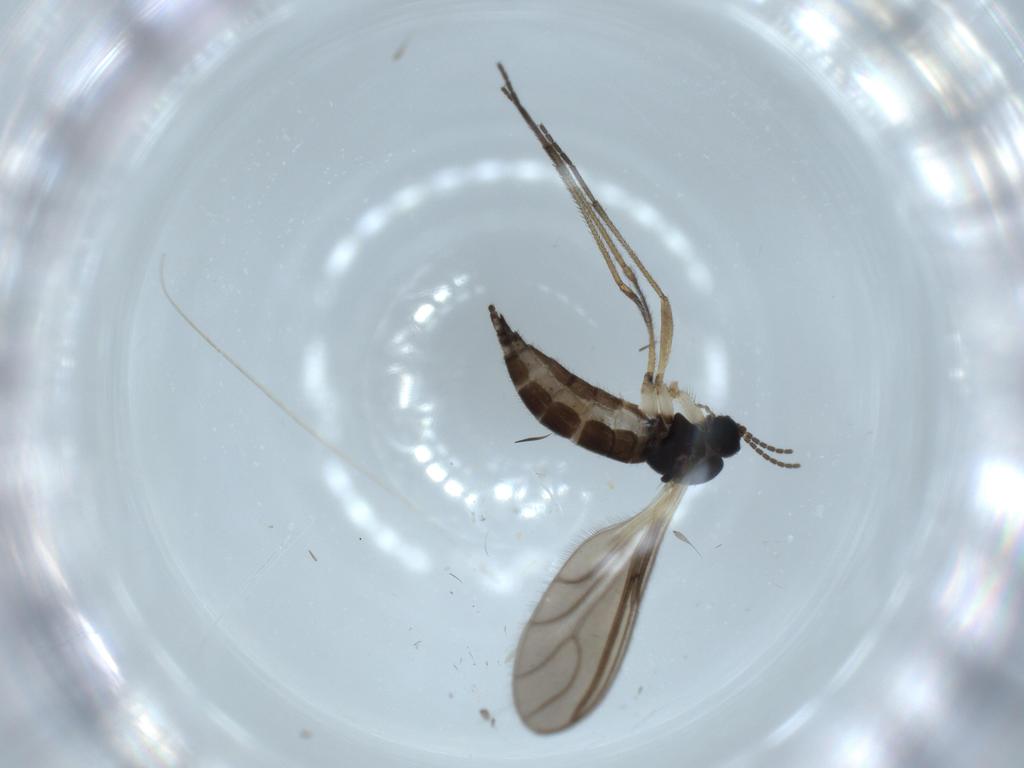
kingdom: Animalia
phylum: Arthropoda
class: Insecta
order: Diptera
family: Sciaridae
